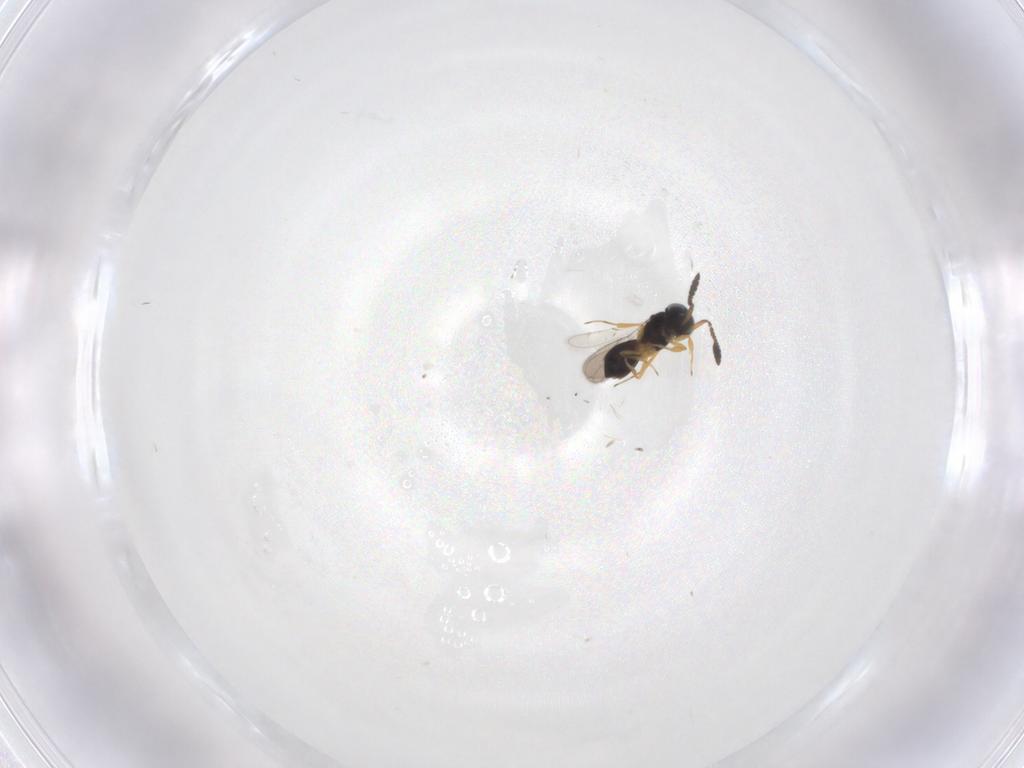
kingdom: Animalia
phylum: Arthropoda
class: Insecta
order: Hymenoptera
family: Scelionidae
